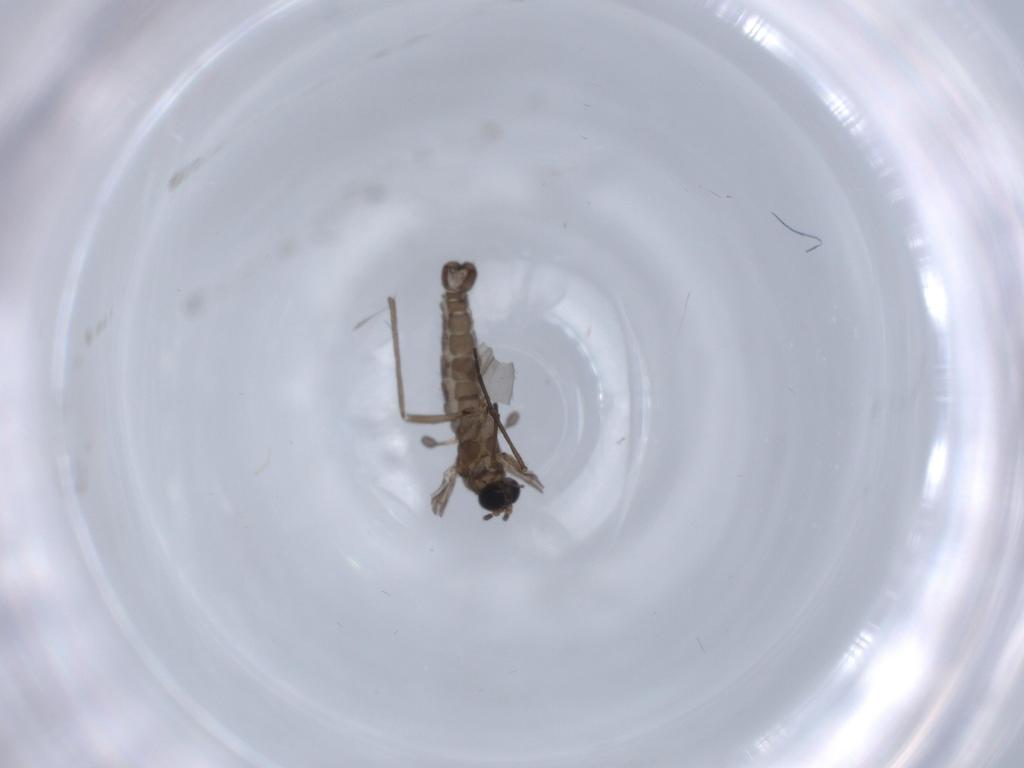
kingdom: Animalia
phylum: Arthropoda
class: Insecta
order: Diptera
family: Sciaridae
